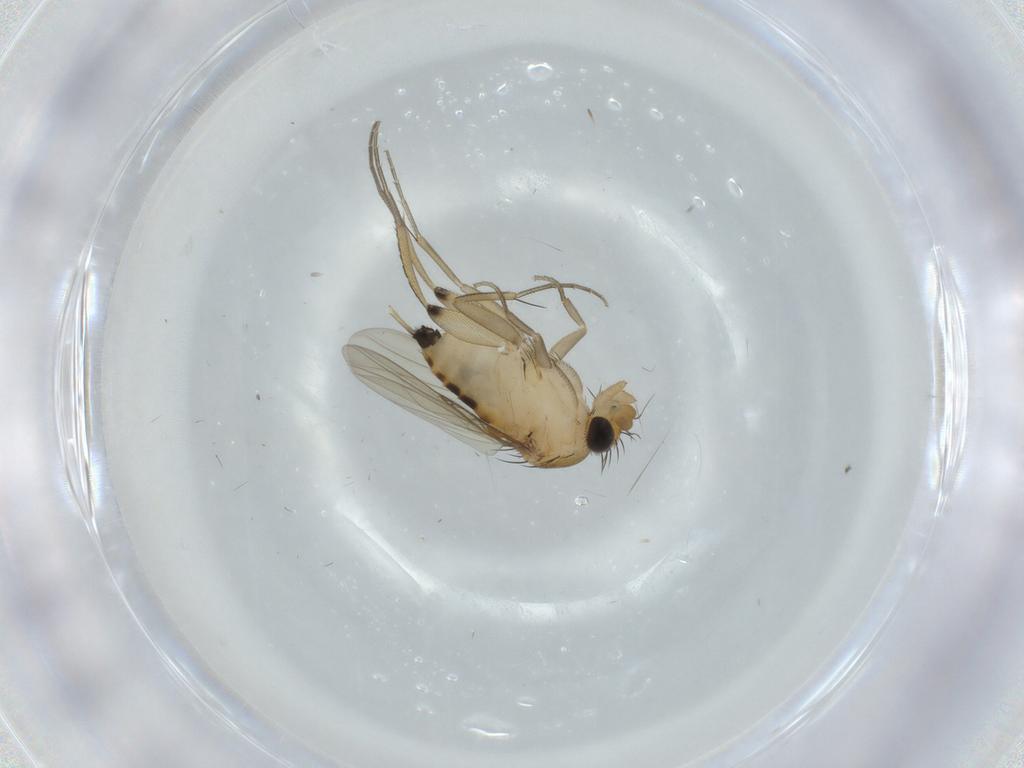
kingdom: Animalia
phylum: Arthropoda
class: Insecta
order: Diptera
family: Phoridae
